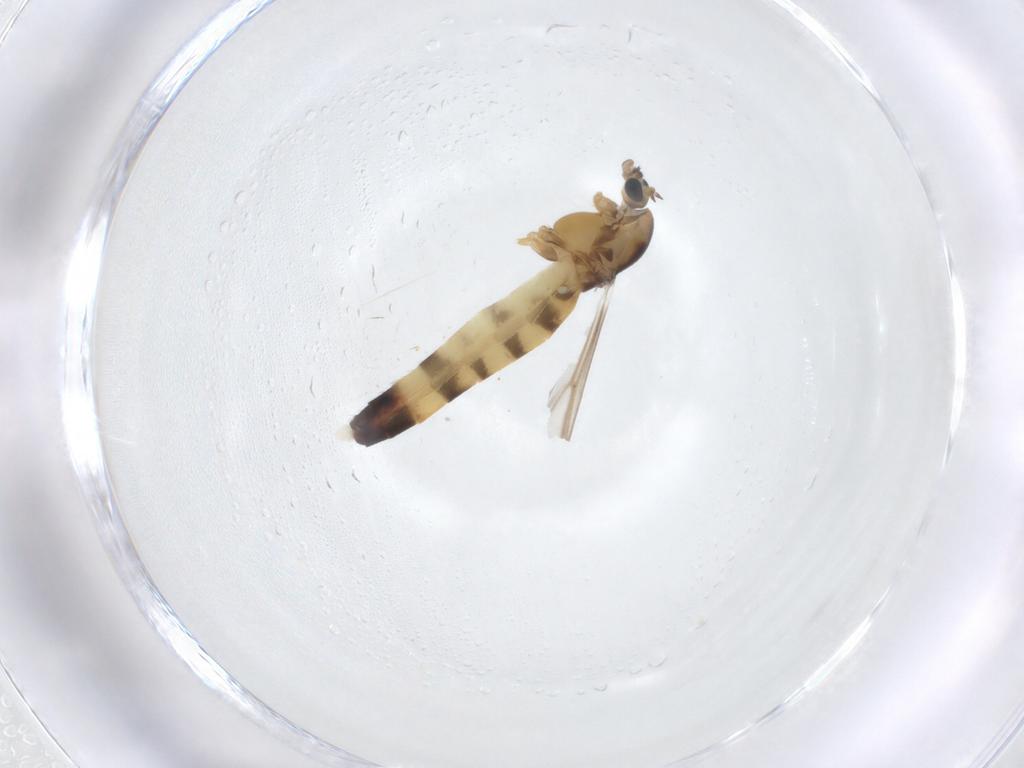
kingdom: Animalia
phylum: Arthropoda
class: Insecta
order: Diptera
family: Chironomidae
